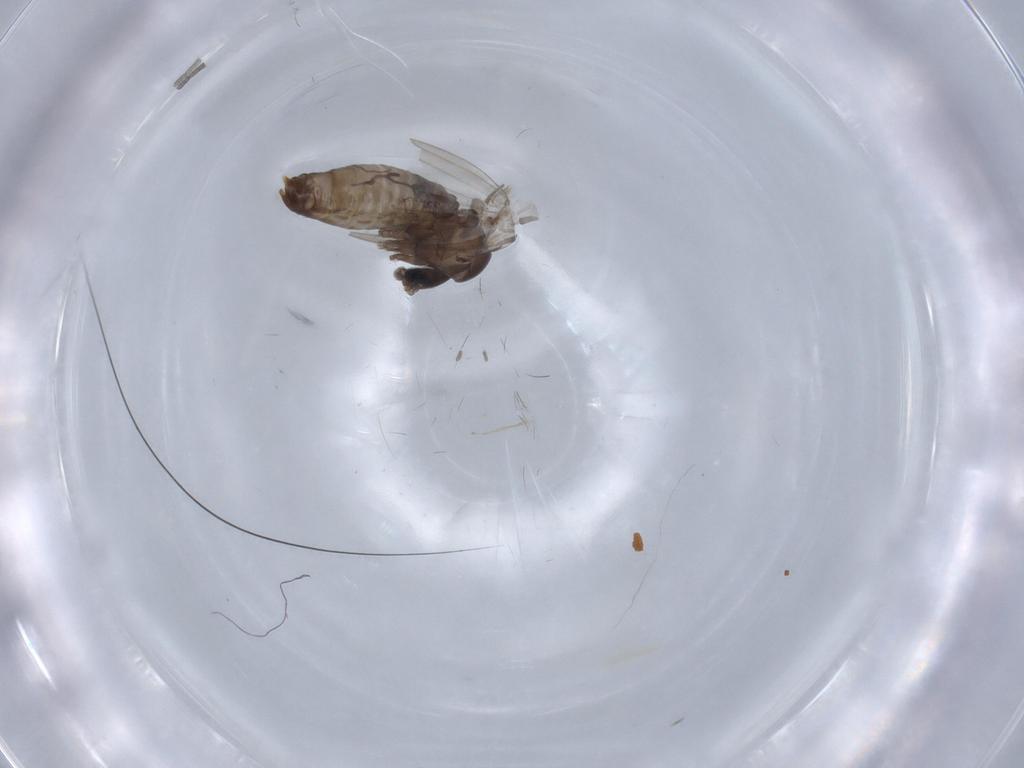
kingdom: Animalia
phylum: Arthropoda
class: Insecta
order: Diptera
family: Psychodidae
